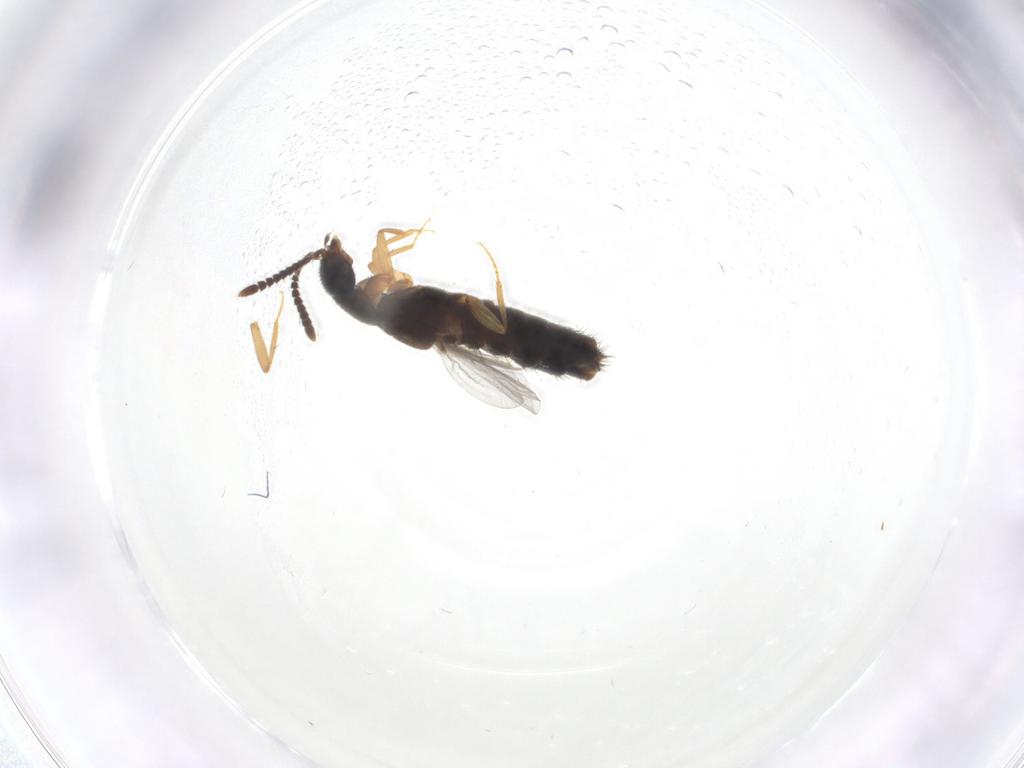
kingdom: Animalia
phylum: Arthropoda
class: Insecta
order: Coleoptera
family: Staphylinidae
